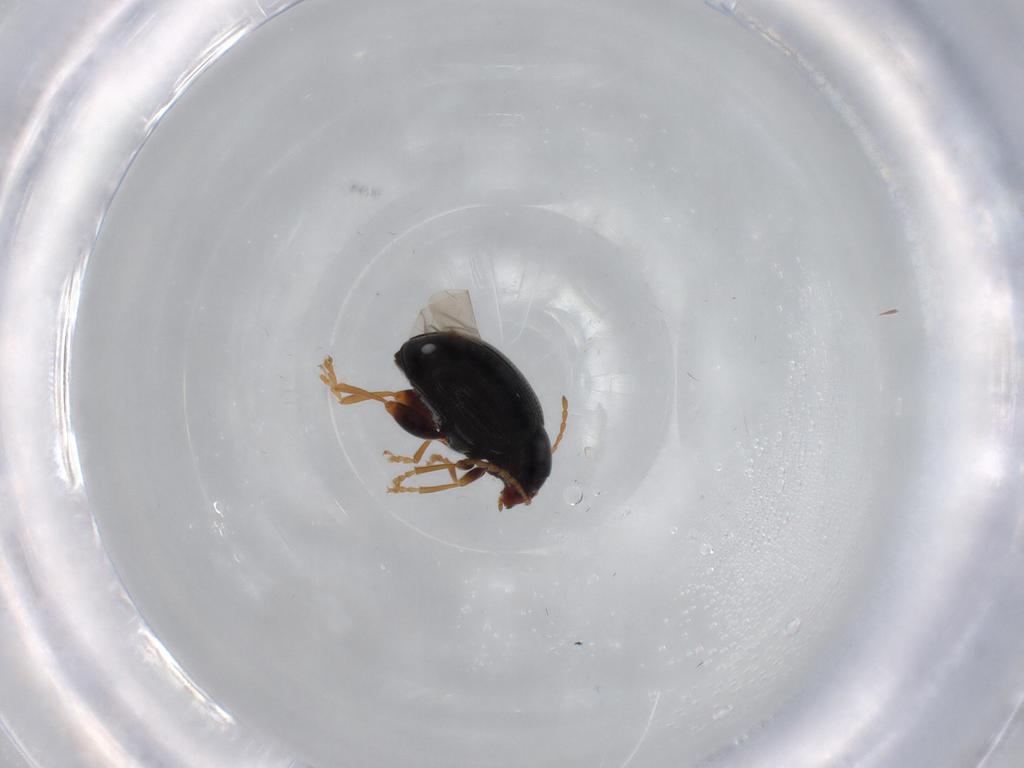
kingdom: Animalia
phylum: Arthropoda
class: Insecta
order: Coleoptera
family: Chrysomelidae
